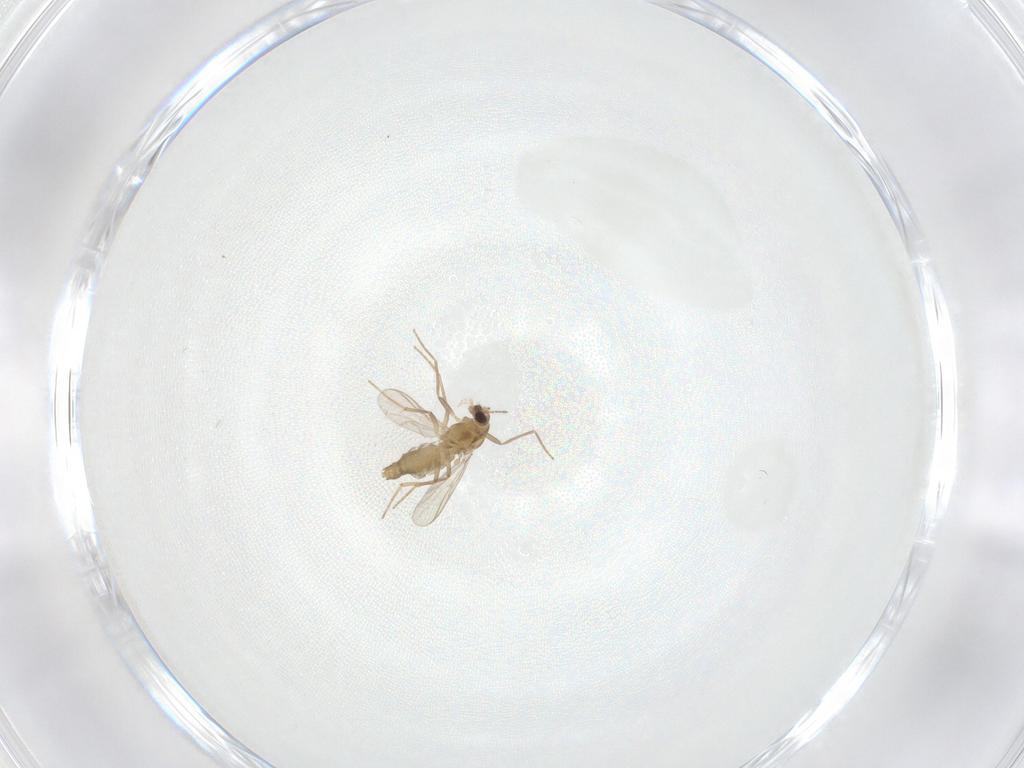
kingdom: Animalia
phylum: Arthropoda
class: Insecta
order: Diptera
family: Chironomidae
